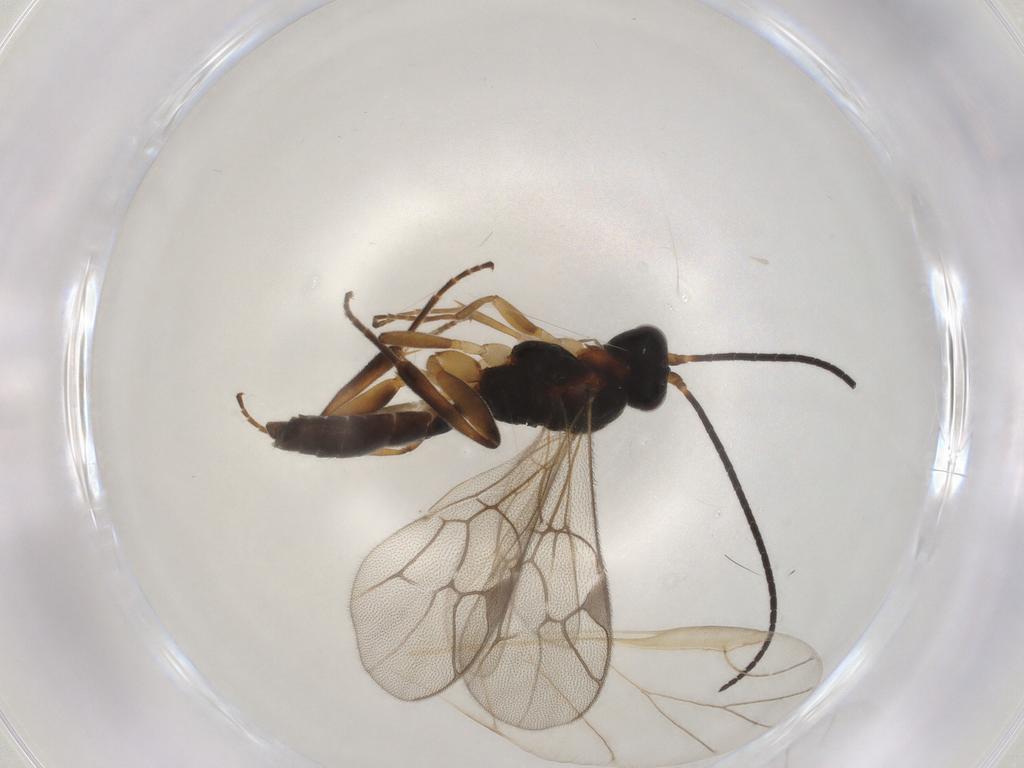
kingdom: Animalia
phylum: Arthropoda
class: Insecta
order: Hymenoptera
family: Ichneumonidae
